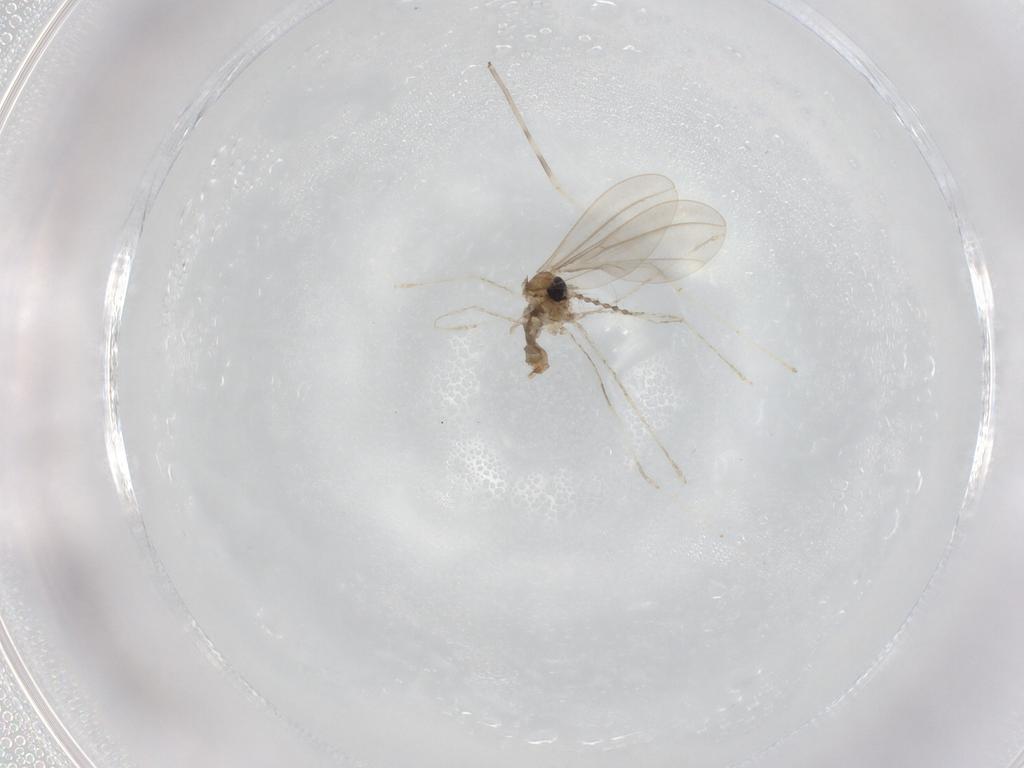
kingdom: Animalia
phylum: Arthropoda
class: Insecta
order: Diptera
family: Cecidomyiidae
